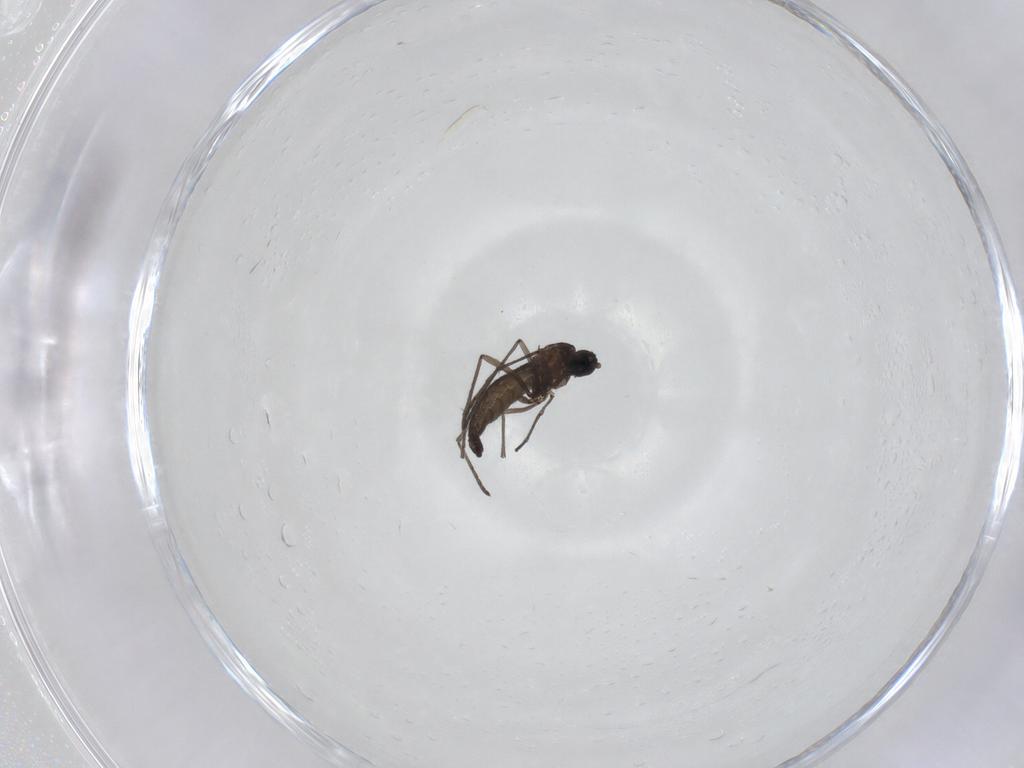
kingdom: Animalia
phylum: Arthropoda
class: Insecta
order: Diptera
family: Sciaridae
